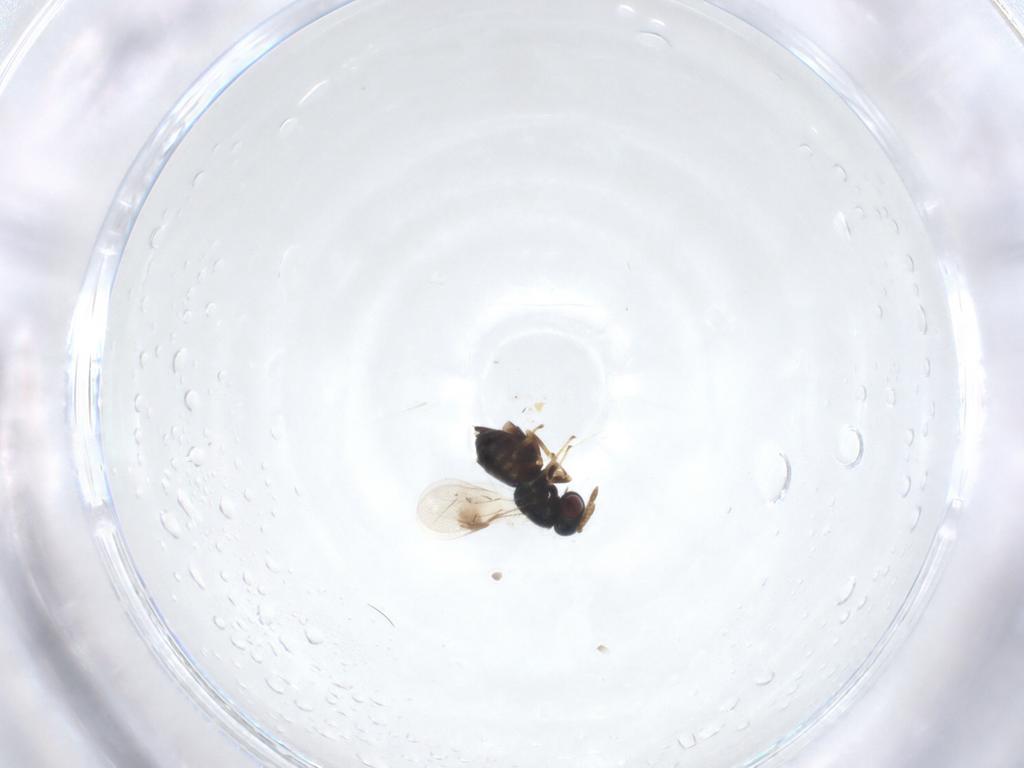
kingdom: Animalia
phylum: Arthropoda
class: Insecta
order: Hymenoptera
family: Pteromalidae
